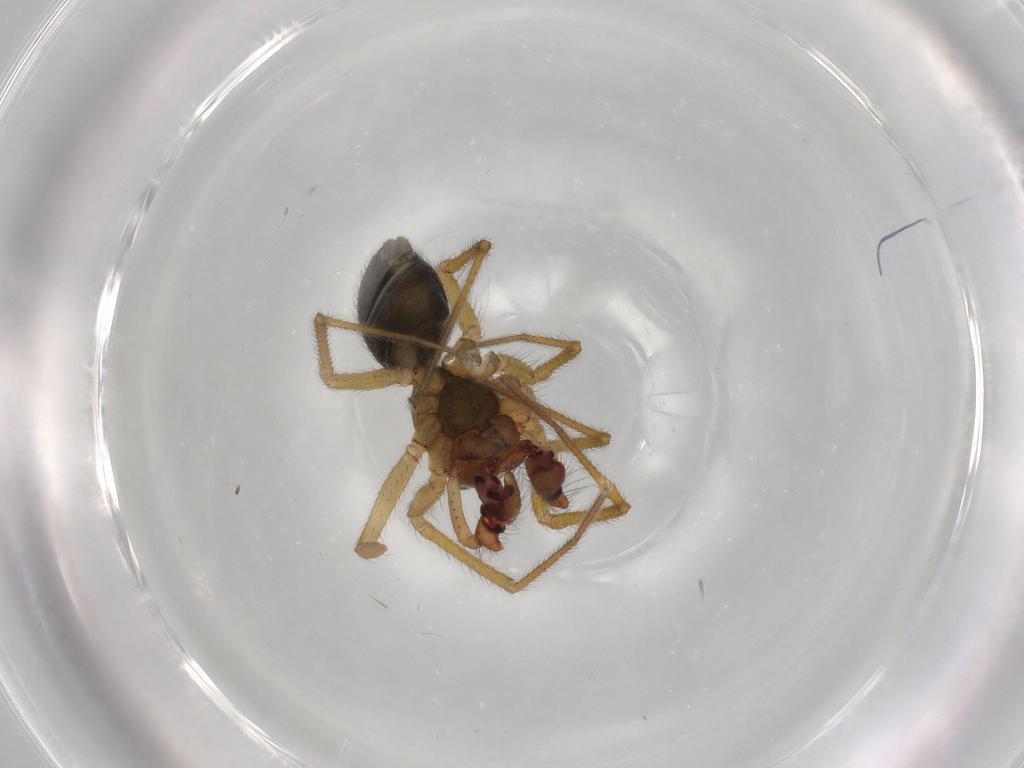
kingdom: Animalia
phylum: Arthropoda
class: Arachnida
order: Araneae
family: Linyphiidae
